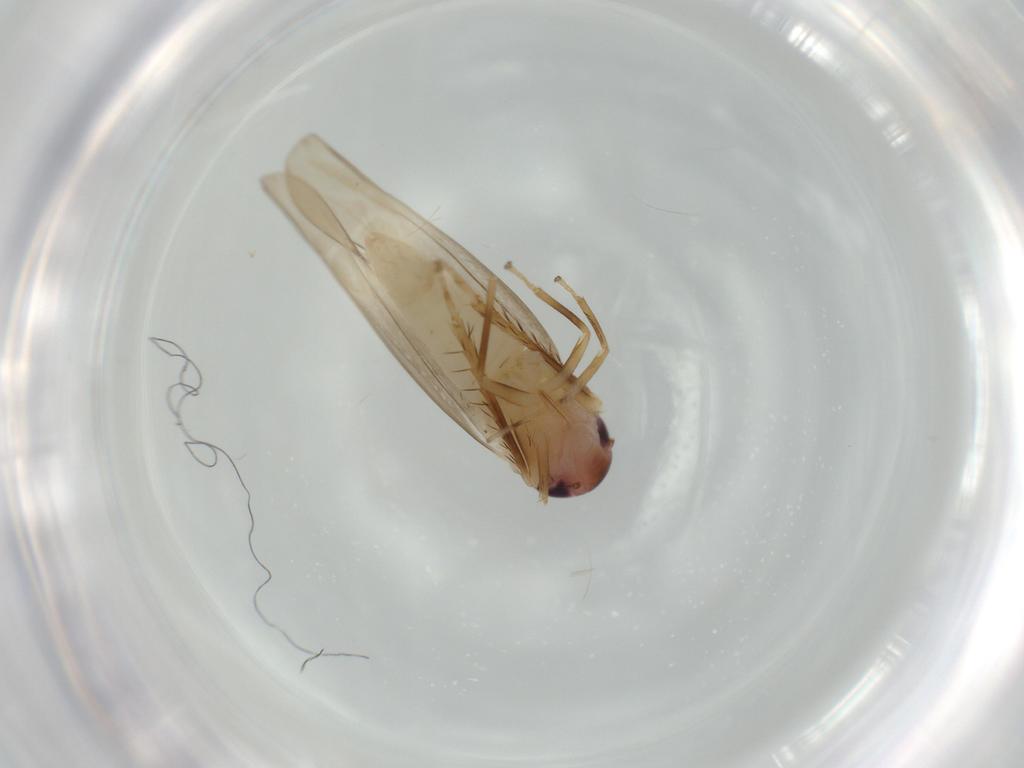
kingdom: Animalia
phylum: Arthropoda
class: Insecta
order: Hemiptera
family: Cicadellidae
